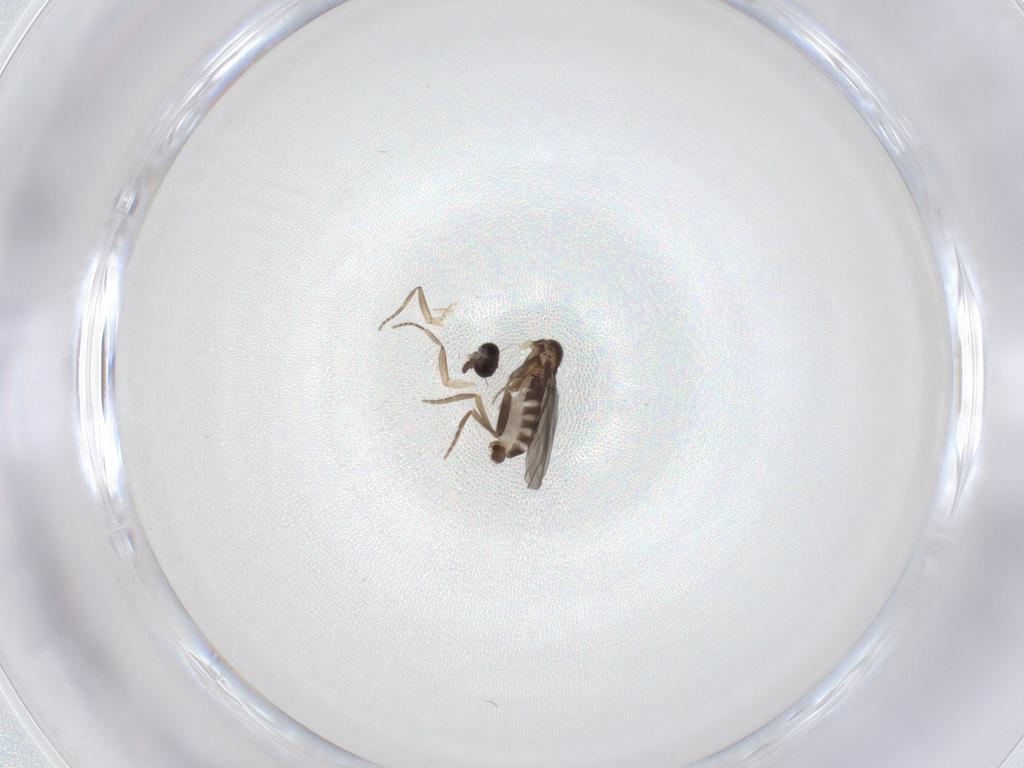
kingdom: Animalia
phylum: Arthropoda
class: Insecta
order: Diptera
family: Phoridae
